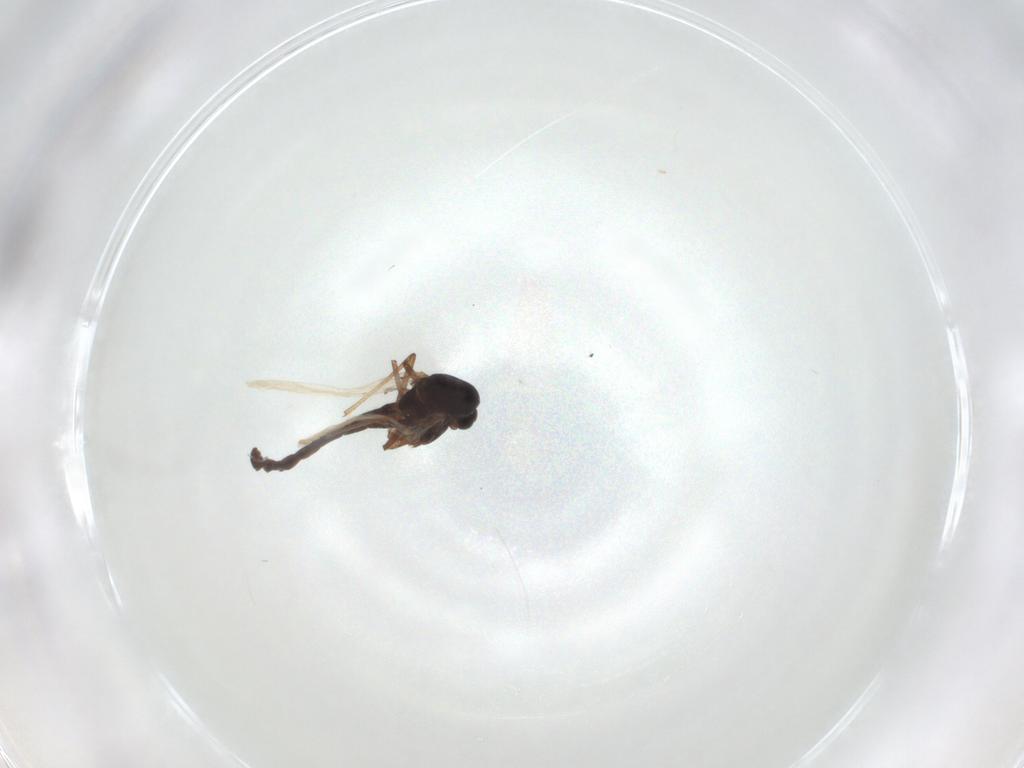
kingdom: Animalia
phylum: Arthropoda
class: Insecta
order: Diptera
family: Chironomidae
